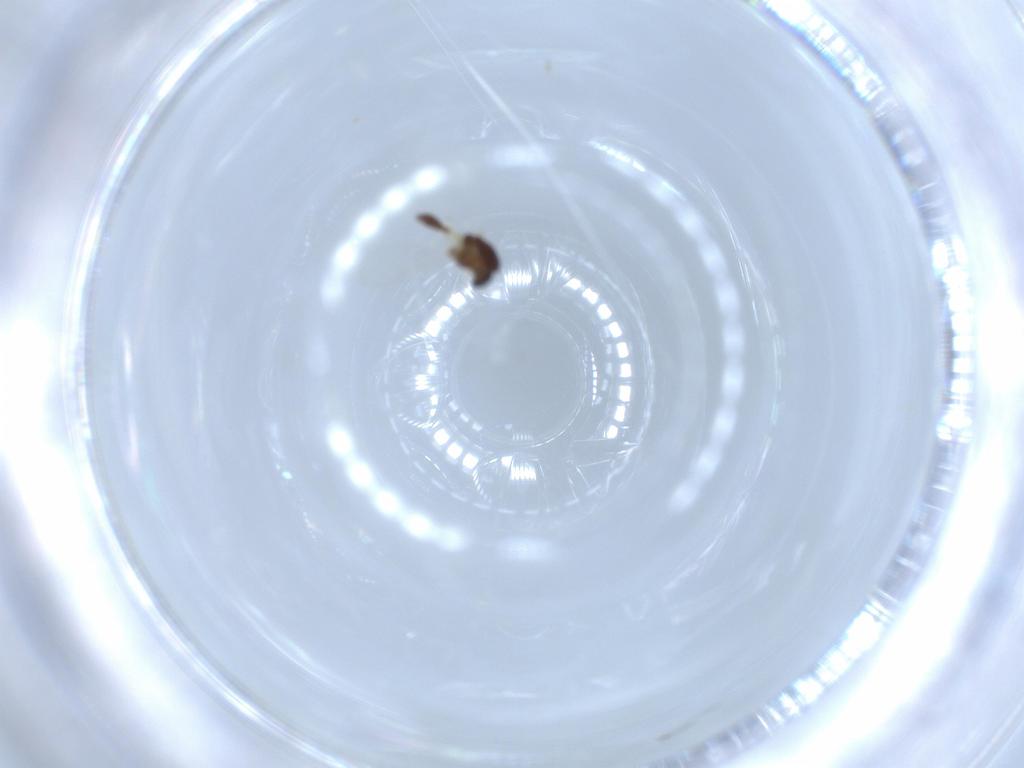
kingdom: Animalia
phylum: Arthropoda
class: Insecta
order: Diptera
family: Chironomidae
